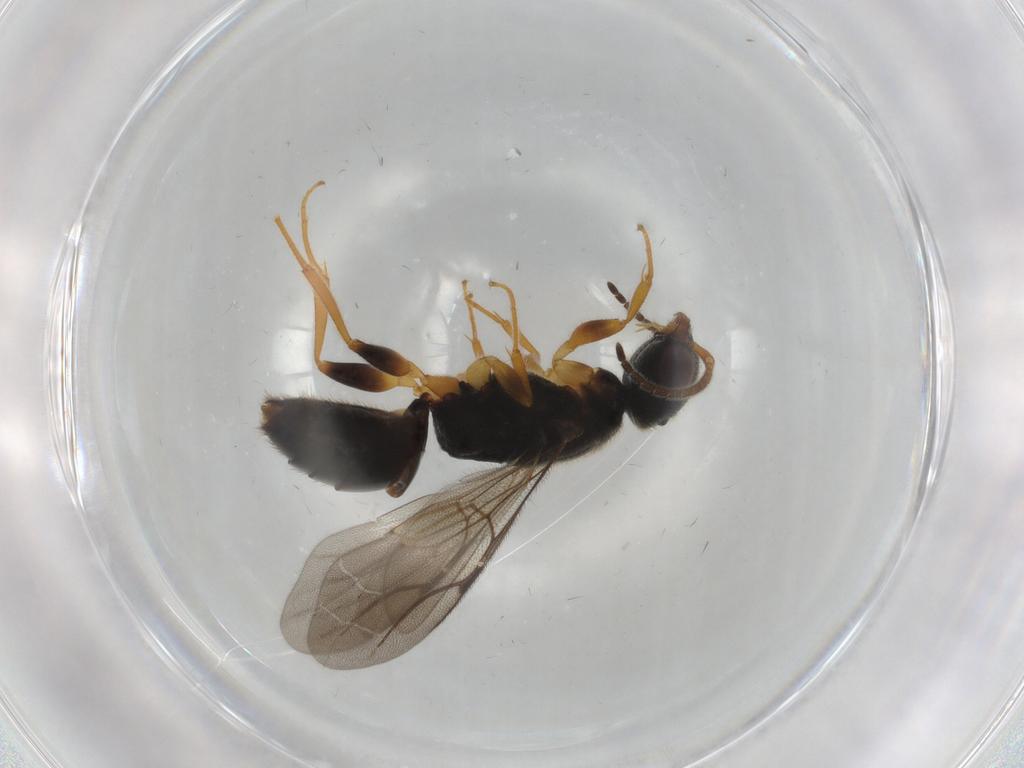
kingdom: Animalia
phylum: Arthropoda
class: Insecta
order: Hymenoptera
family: Bethylidae
